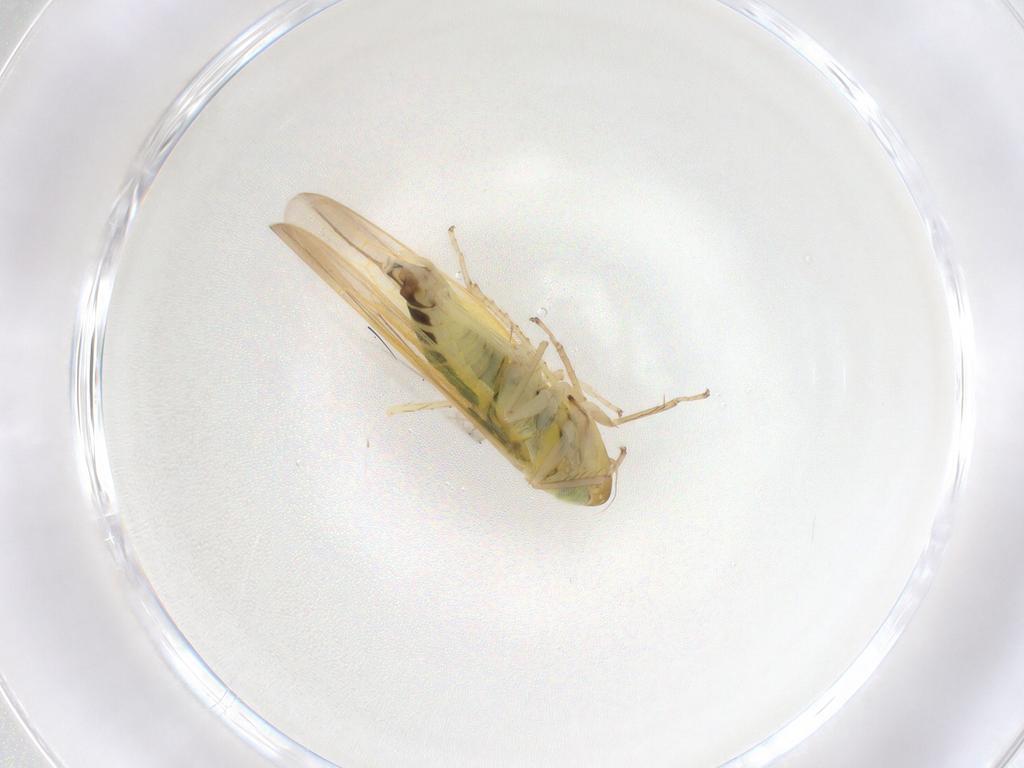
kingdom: Animalia
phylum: Arthropoda
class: Insecta
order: Hemiptera
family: Cicadellidae
